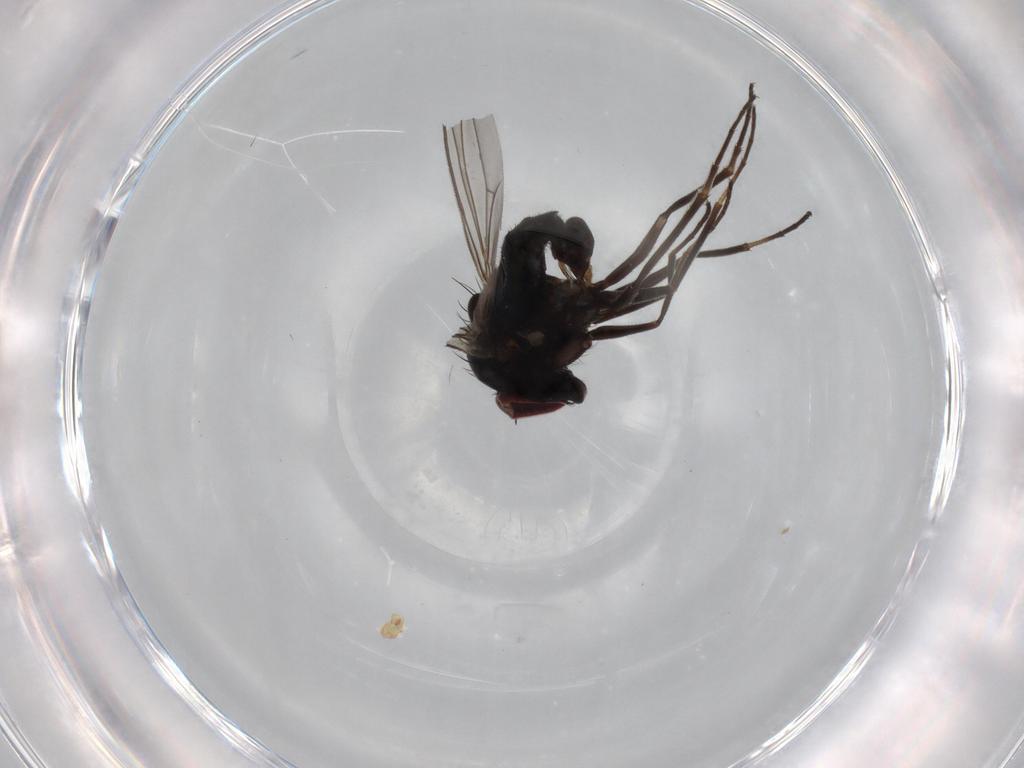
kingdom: Animalia
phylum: Arthropoda
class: Insecta
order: Diptera
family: Dolichopodidae
